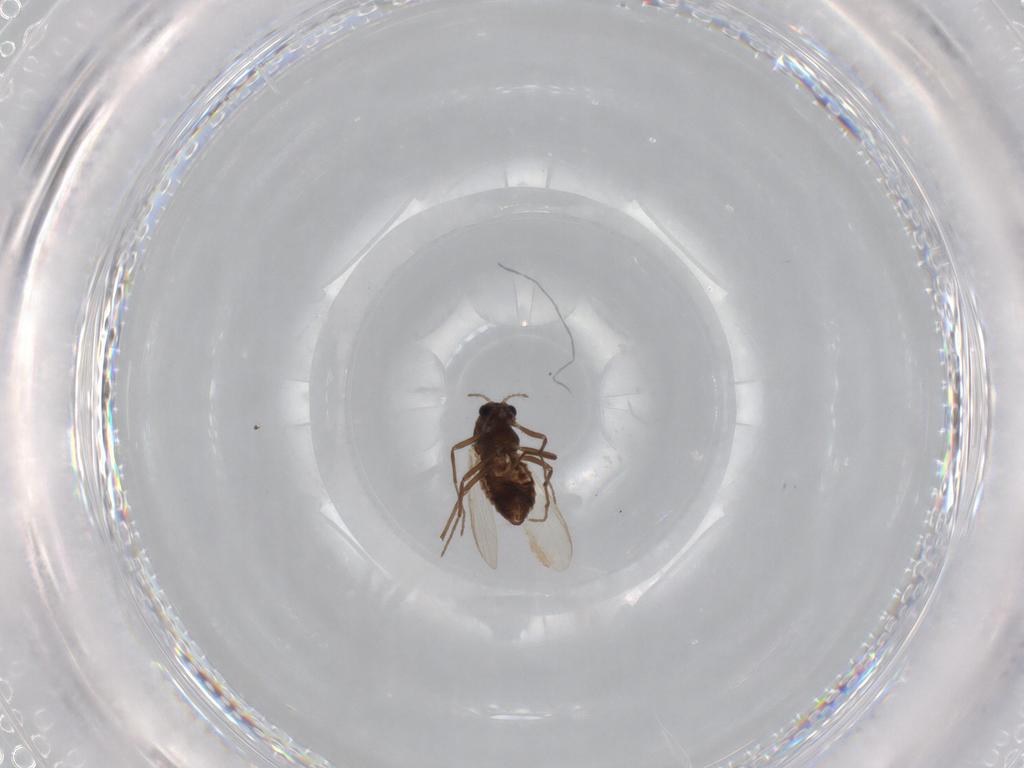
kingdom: Animalia
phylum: Arthropoda
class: Insecta
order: Diptera
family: Chironomidae
